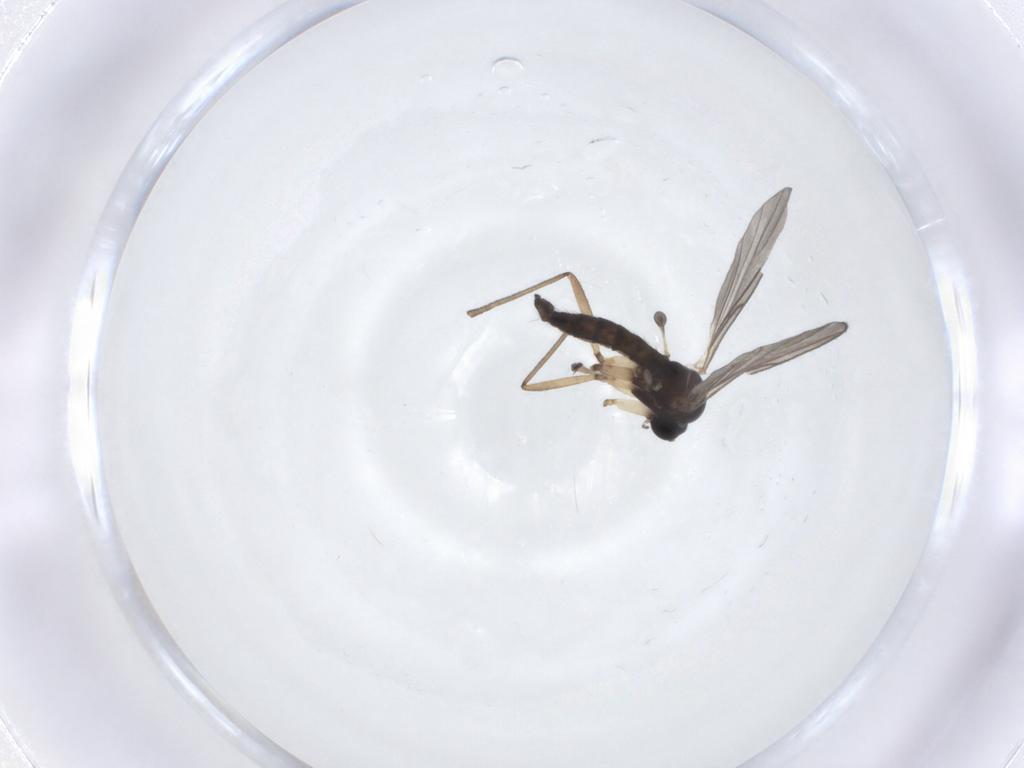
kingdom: Animalia
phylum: Arthropoda
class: Insecta
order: Diptera
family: Sciaridae
